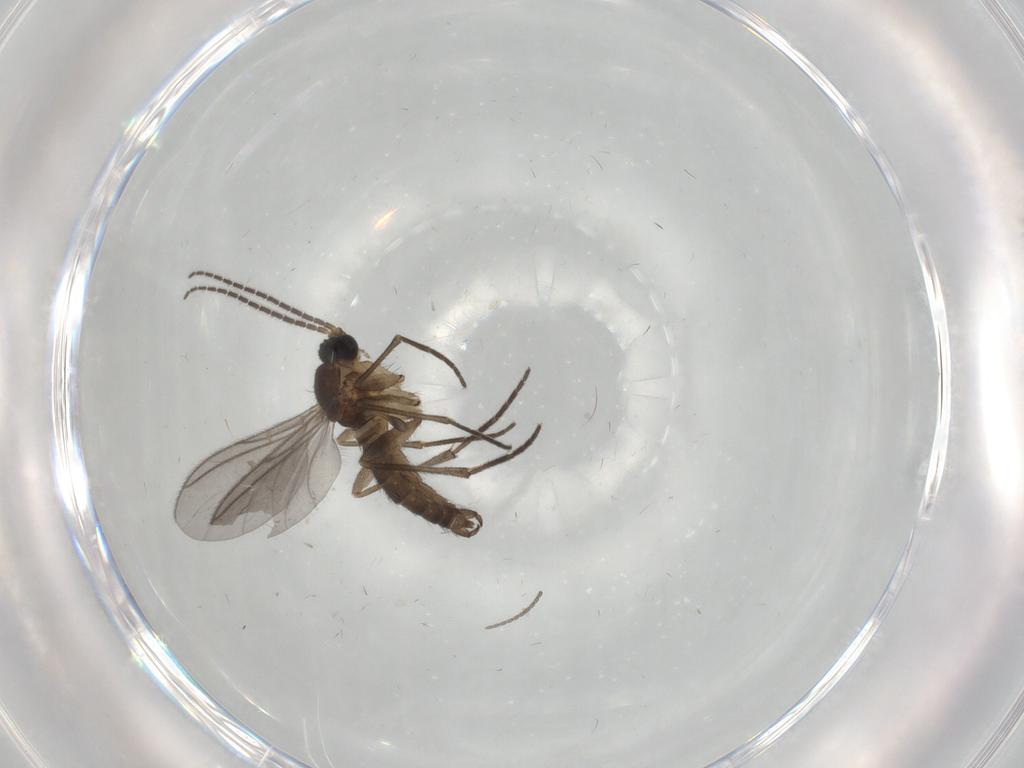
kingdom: Animalia
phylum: Arthropoda
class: Insecta
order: Diptera
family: Sciaridae
